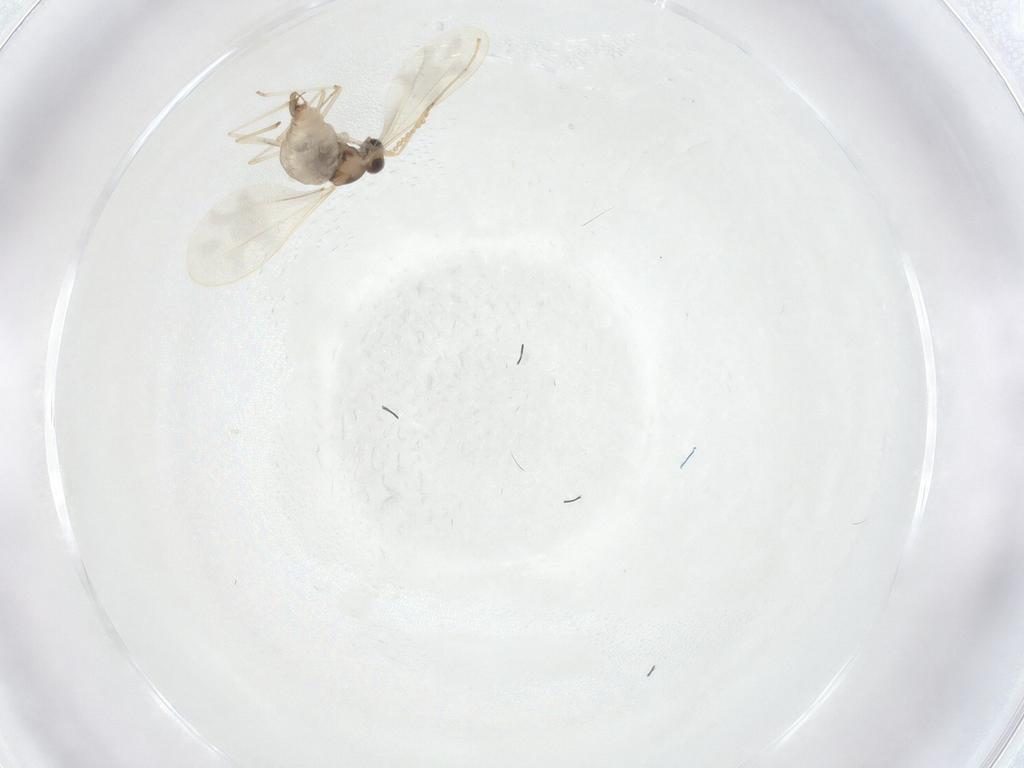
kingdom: Animalia
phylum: Arthropoda
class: Insecta
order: Diptera
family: Cecidomyiidae
